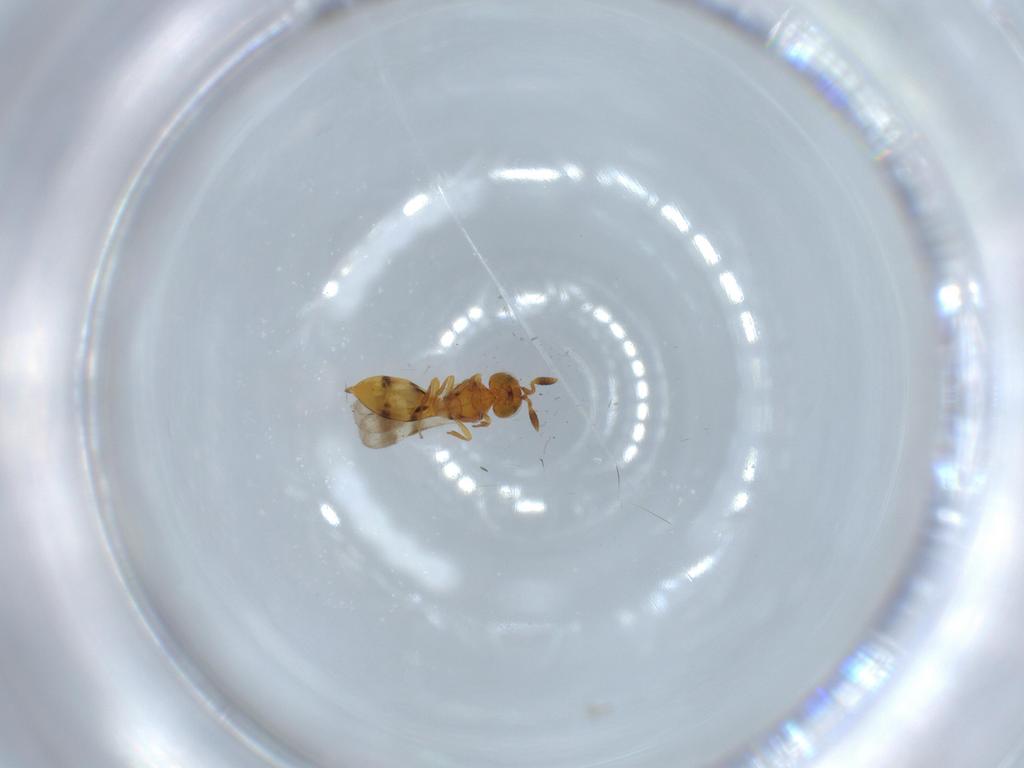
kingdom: Animalia
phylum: Arthropoda
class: Insecta
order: Hymenoptera
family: Scelionidae
